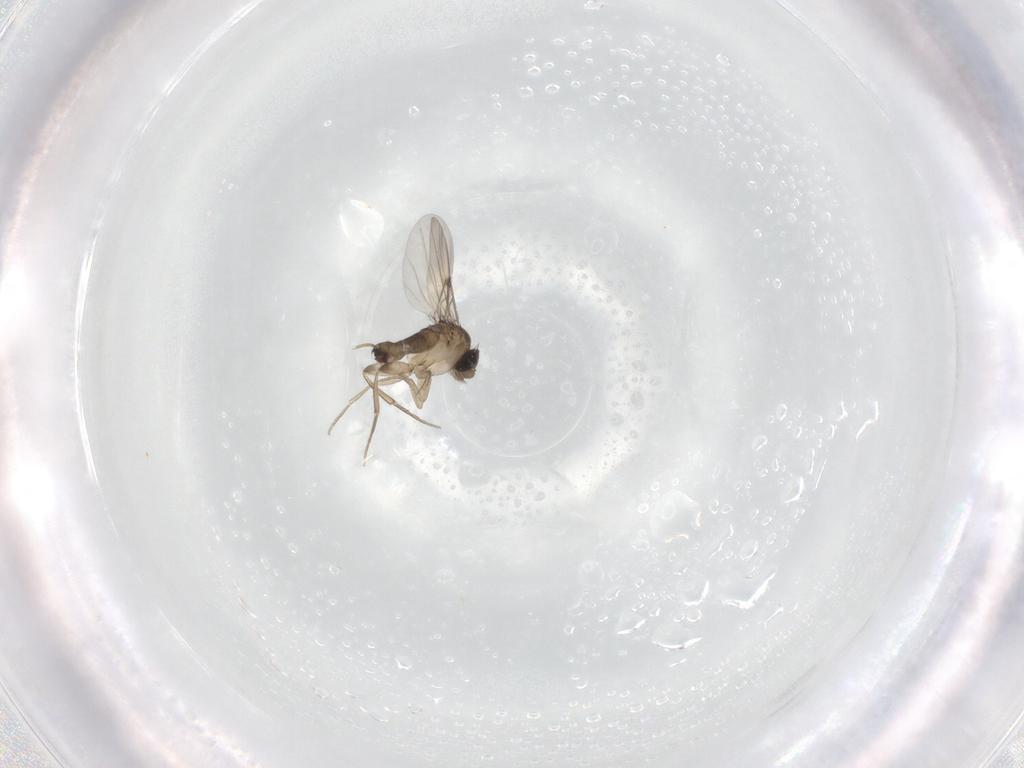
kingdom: Animalia
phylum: Arthropoda
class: Insecta
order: Diptera
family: Phoridae
